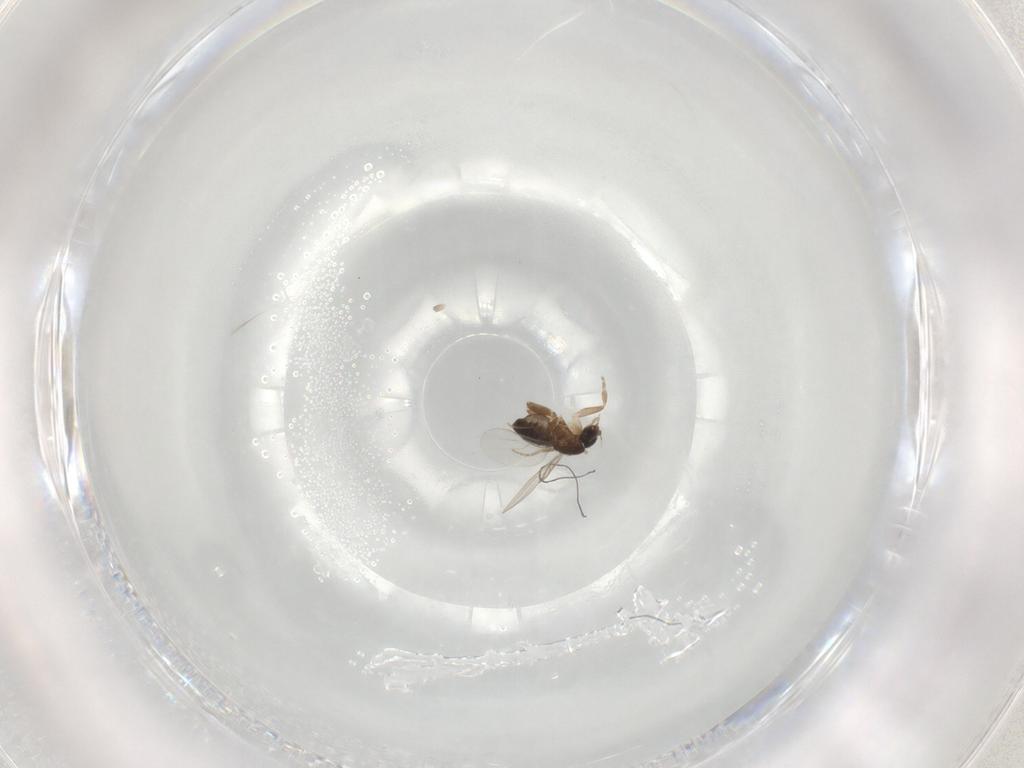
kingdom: Animalia
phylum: Arthropoda
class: Insecta
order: Diptera
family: Phoridae
